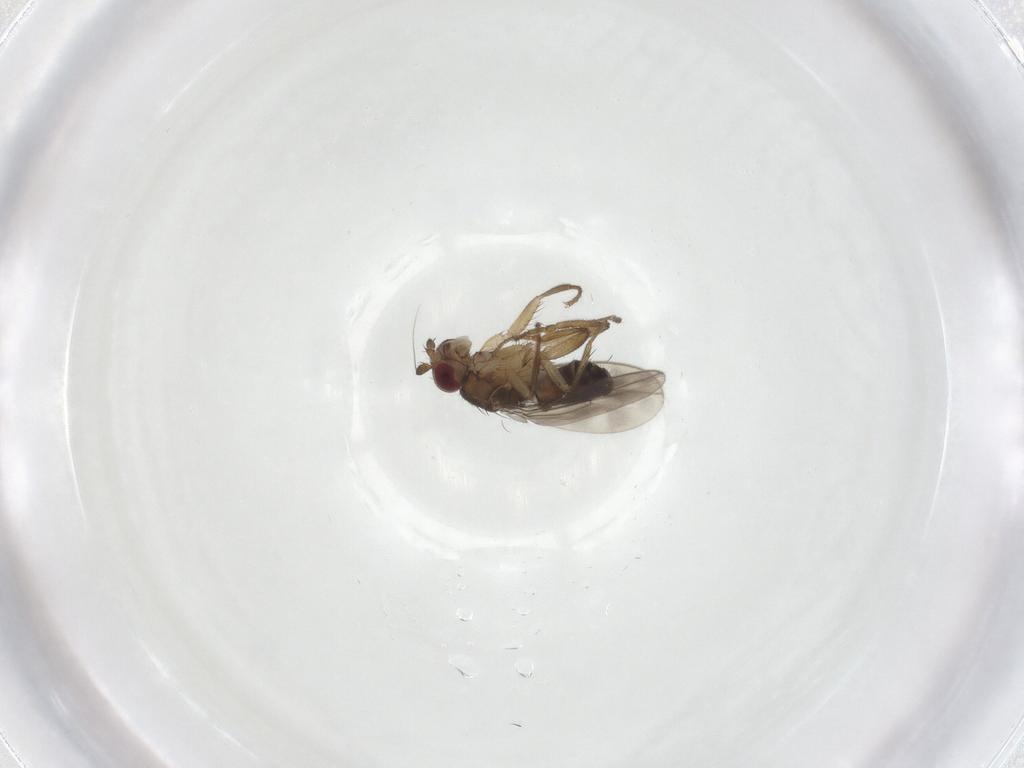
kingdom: Animalia
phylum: Arthropoda
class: Insecta
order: Diptera
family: Sphaeroceridae
